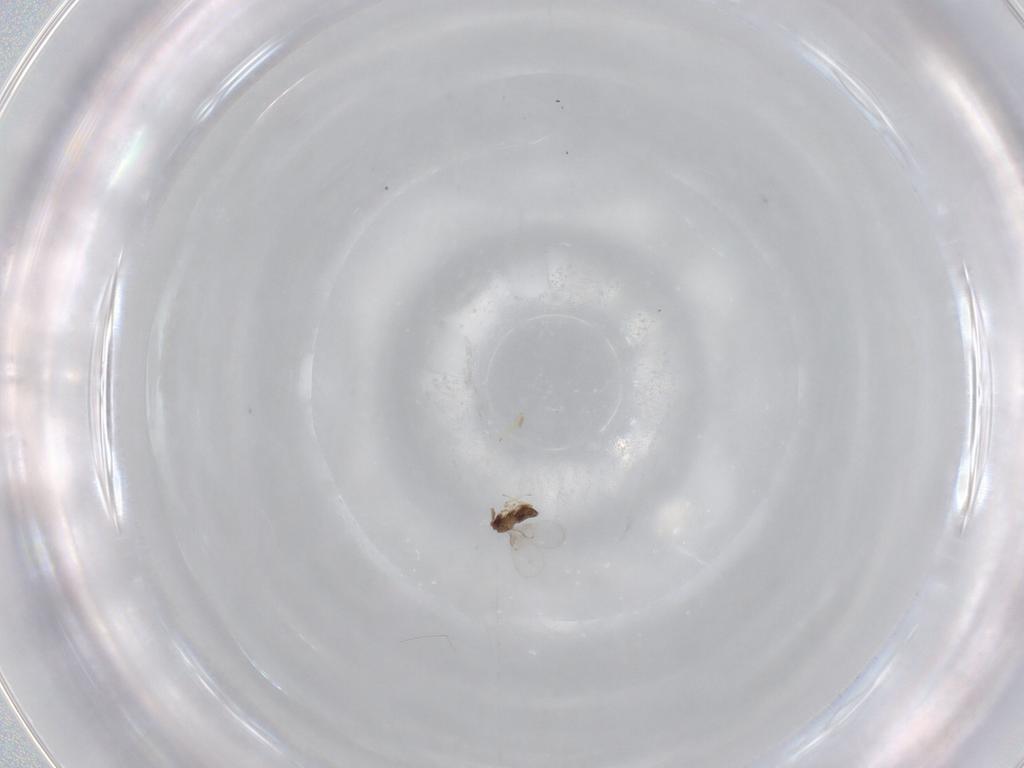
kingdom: Animalia
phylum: Arthropoda
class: Insecta
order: Hymenoptera
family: Trichogrammatidae
